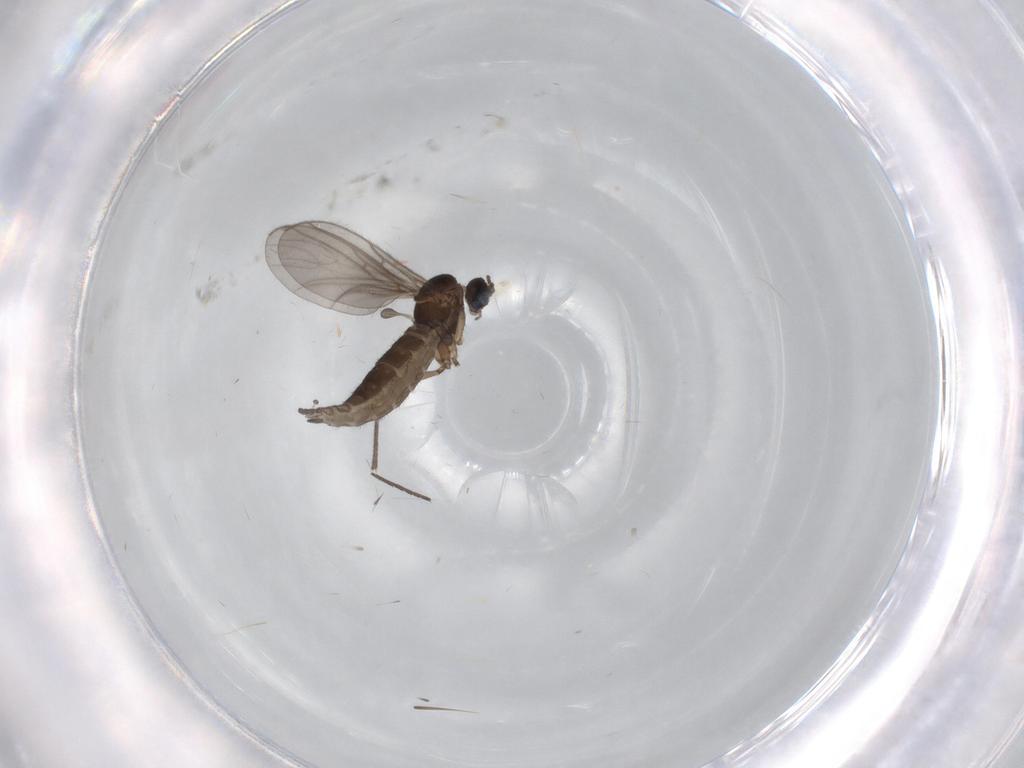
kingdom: Animalia
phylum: Arthropoda
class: Insecta
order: Diptera
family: Sciaridae
